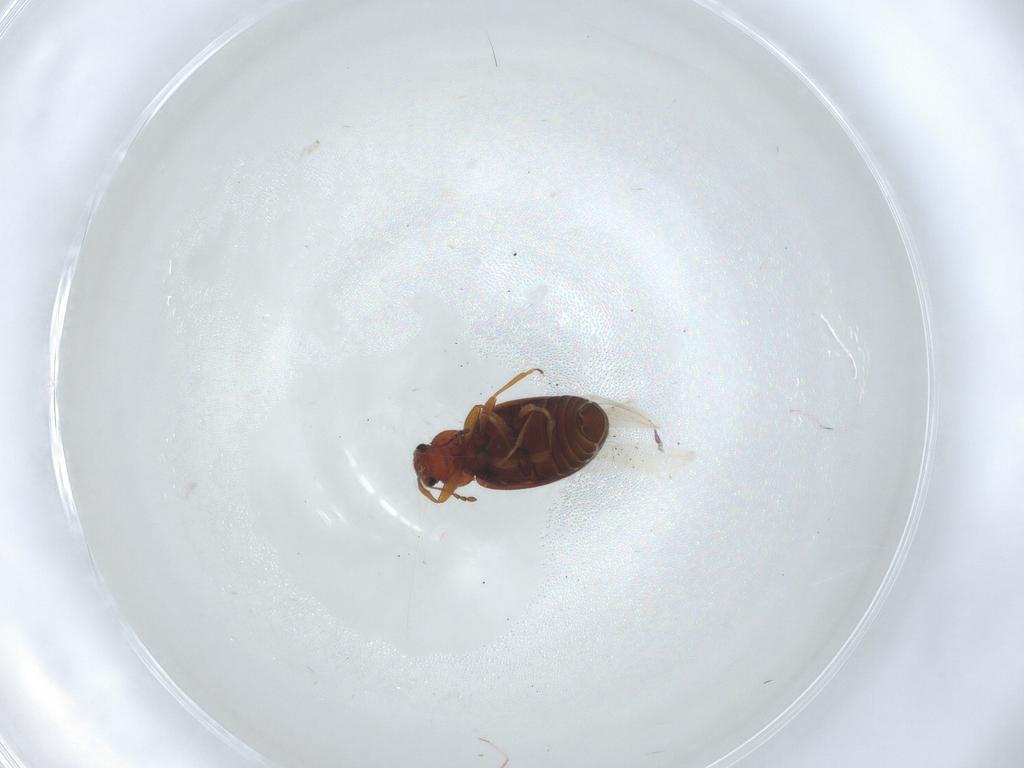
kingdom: Animalia
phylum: Arthropoda
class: Insecta
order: Coleoptera
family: Latridiidae
